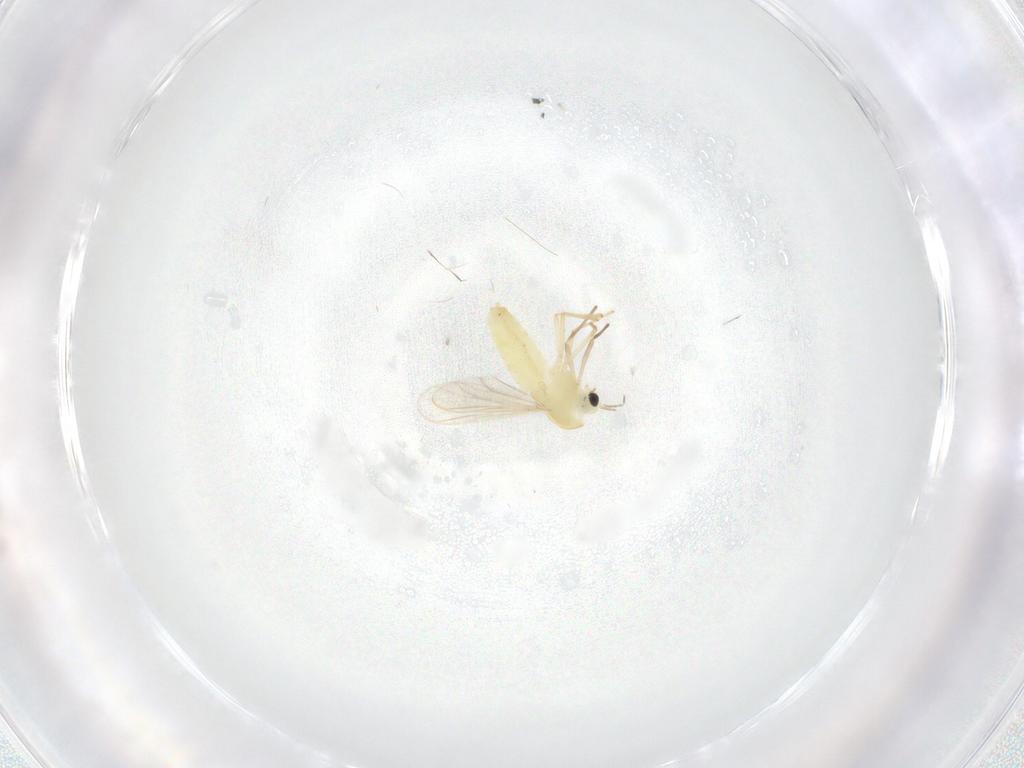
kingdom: Animalia
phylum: Arthropoda
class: Insecta
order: Diptera
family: Chironomidae
